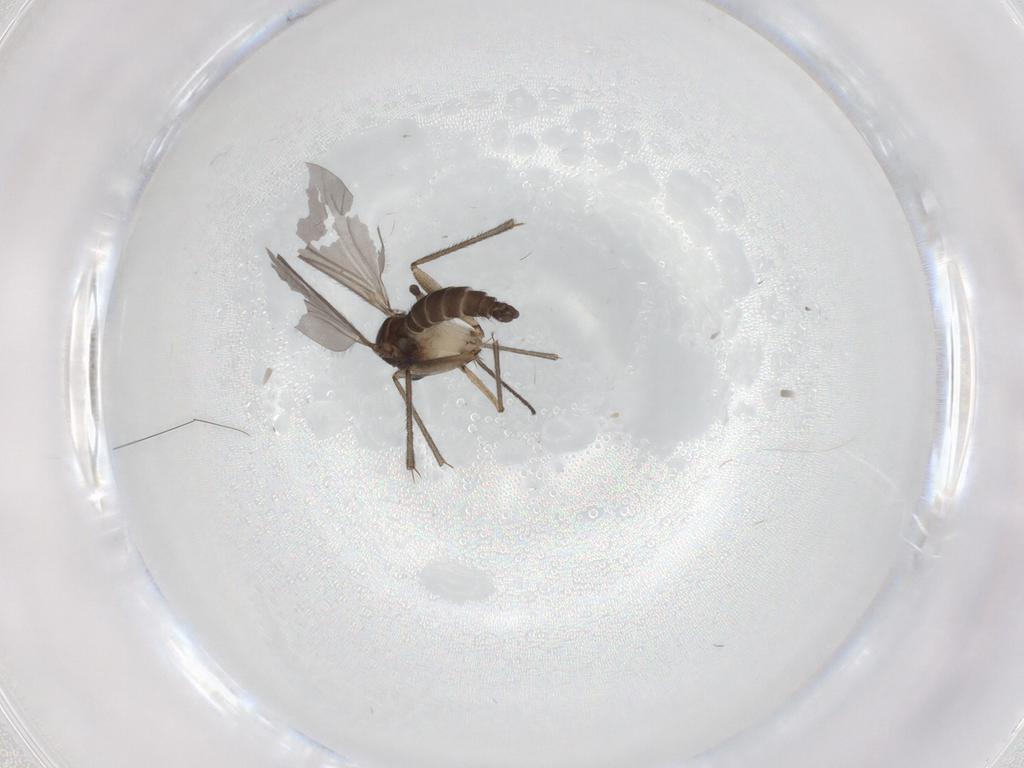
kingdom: Animalia
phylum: Arthropoda
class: Insecta
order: Diptera
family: Sciaridae
